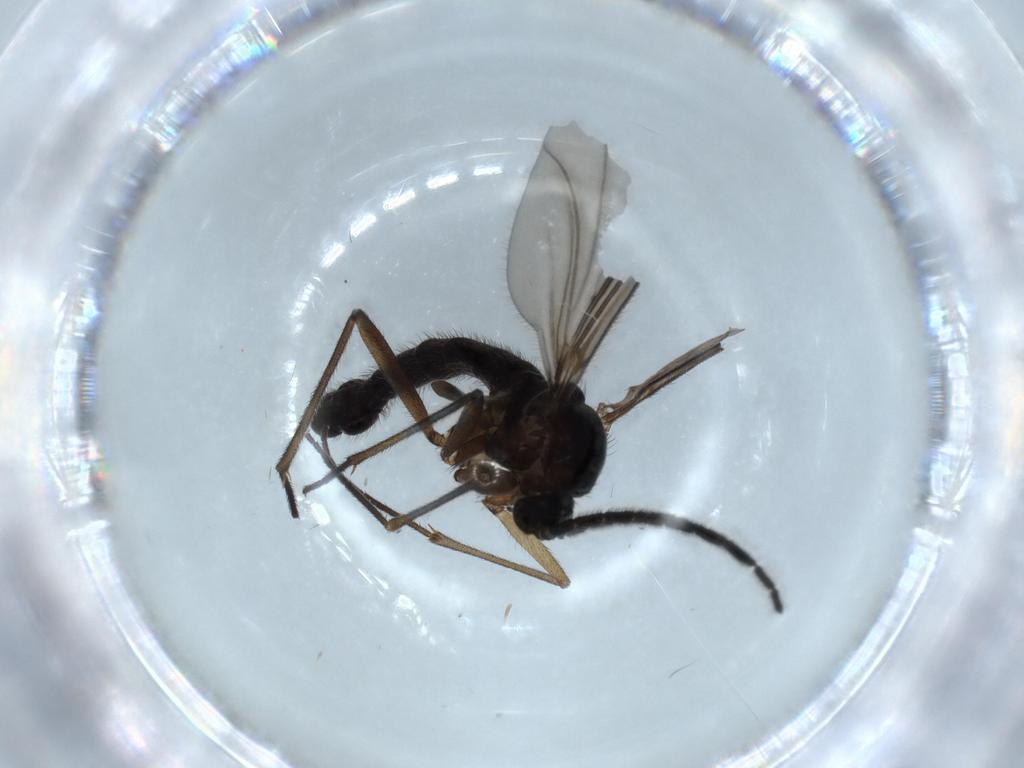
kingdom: Animalia
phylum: Arthropoda
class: Insecta
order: Diptera
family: Sciaridae
